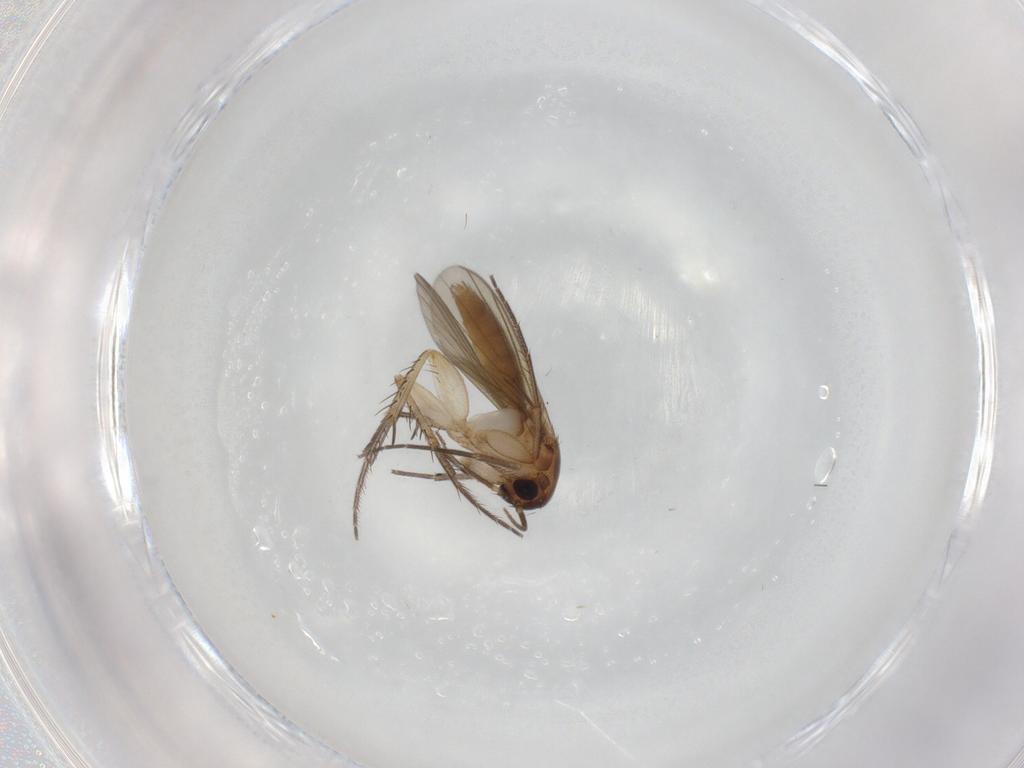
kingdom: Animalia
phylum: Arthropoda
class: Insecta
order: Diptera
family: Mycetophilidae
